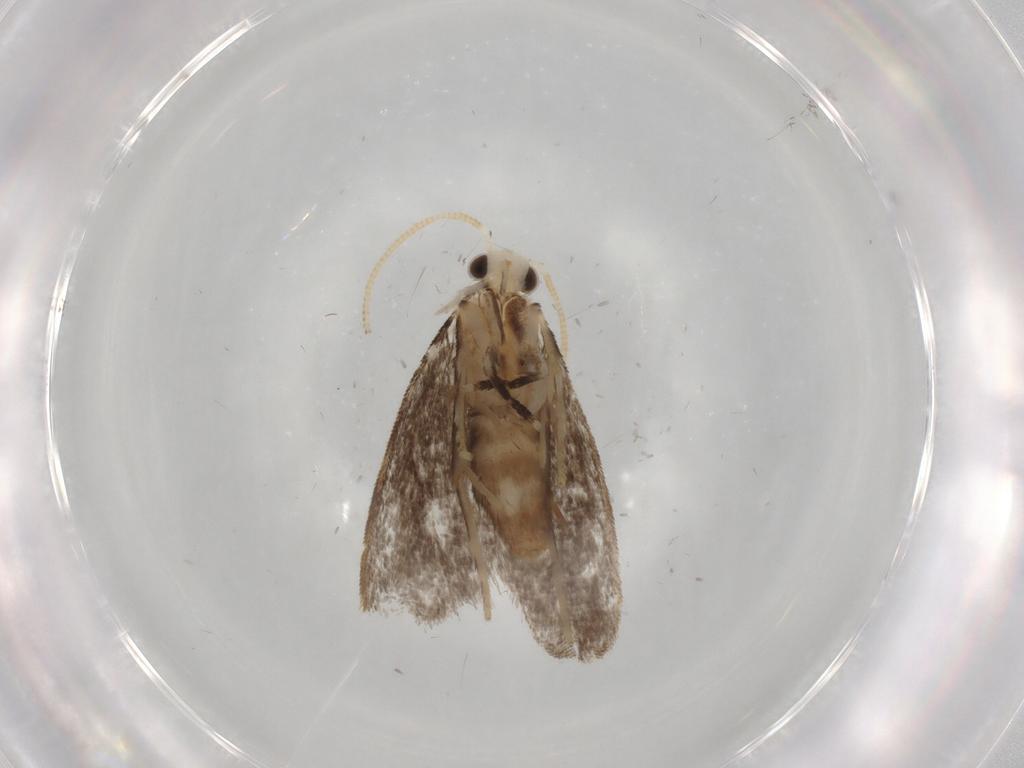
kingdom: Animalia
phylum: Arthropoda
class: Insecta
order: Lepidoptera
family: Dryadaulidae
